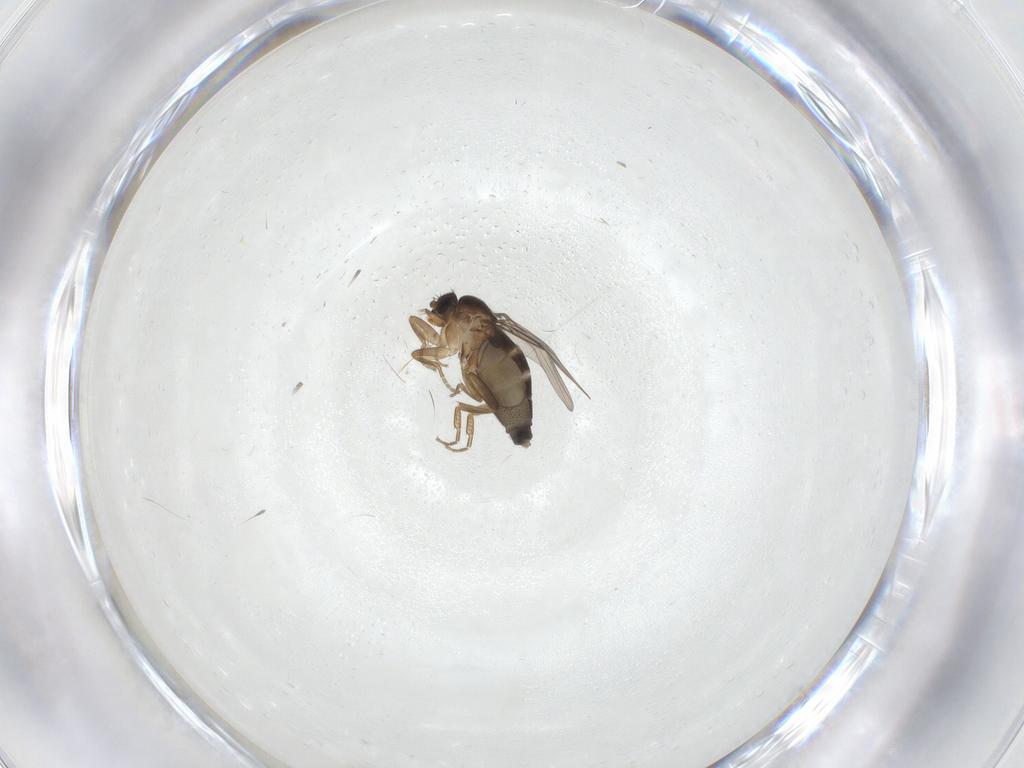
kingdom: Animalia
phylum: Arthropoda
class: Insecta
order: Diptera
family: Phoridae
